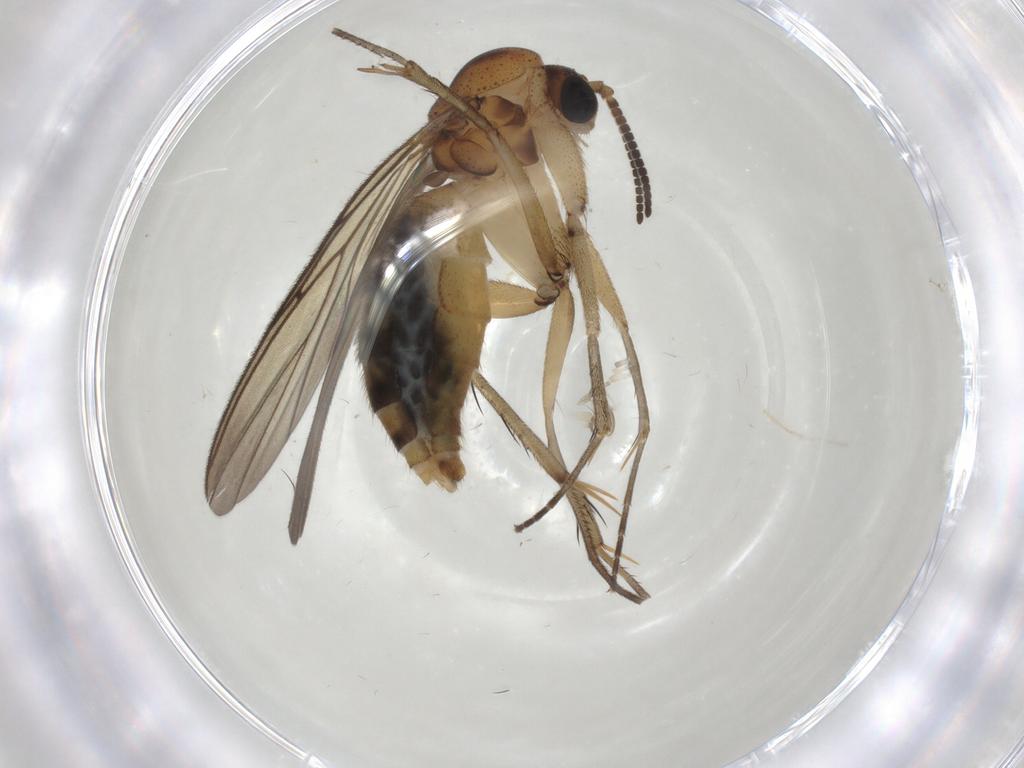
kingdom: Animalia
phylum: Arthropoda
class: Insecta
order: Diptera
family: Mycetophilidae
